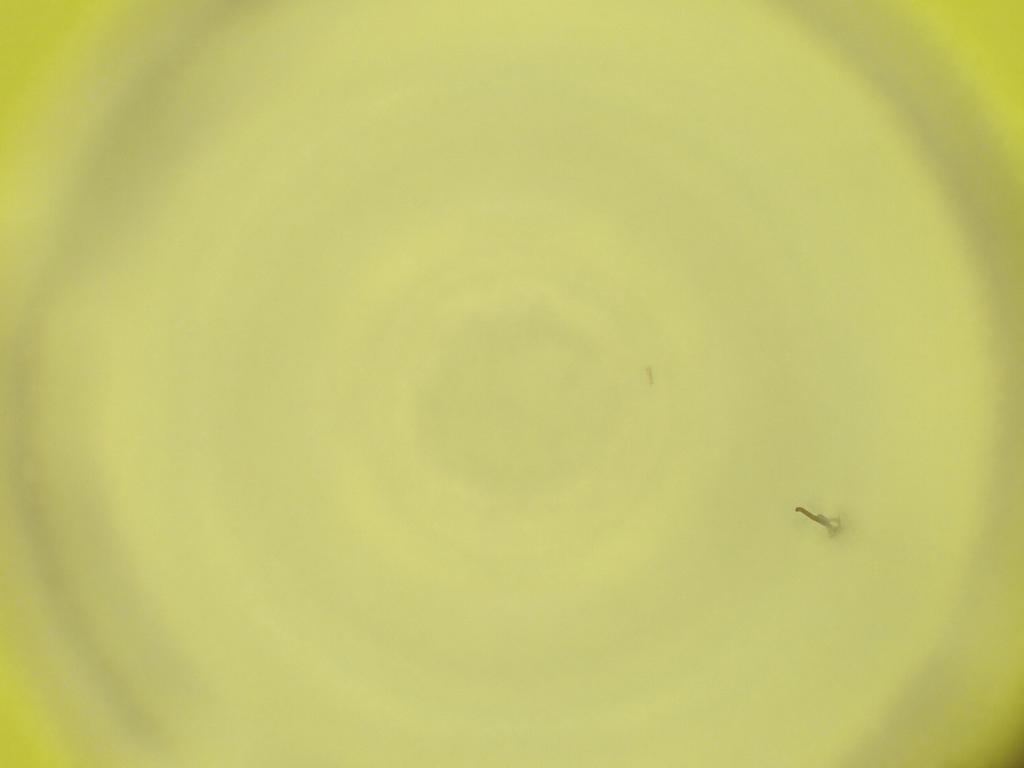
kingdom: Animalia
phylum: Arthropoda
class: Insecta
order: Diptera
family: Cecidomyiidae
